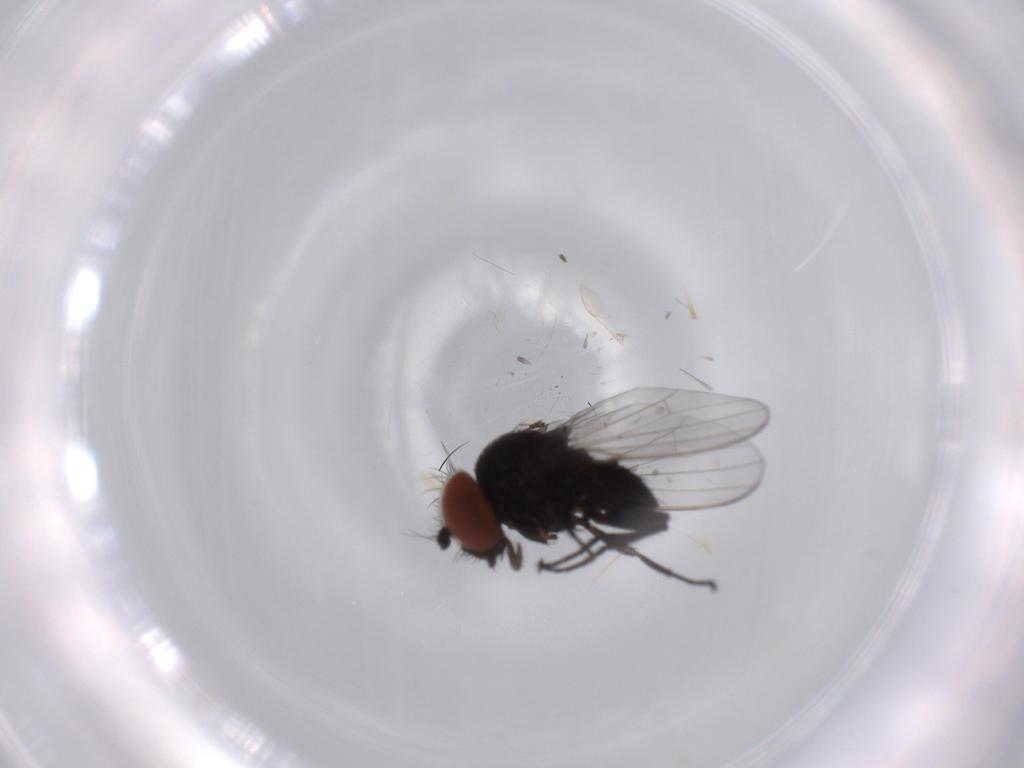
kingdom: Animalia
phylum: Arthropoda
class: Insecta
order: Diptera
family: Milichiidae
